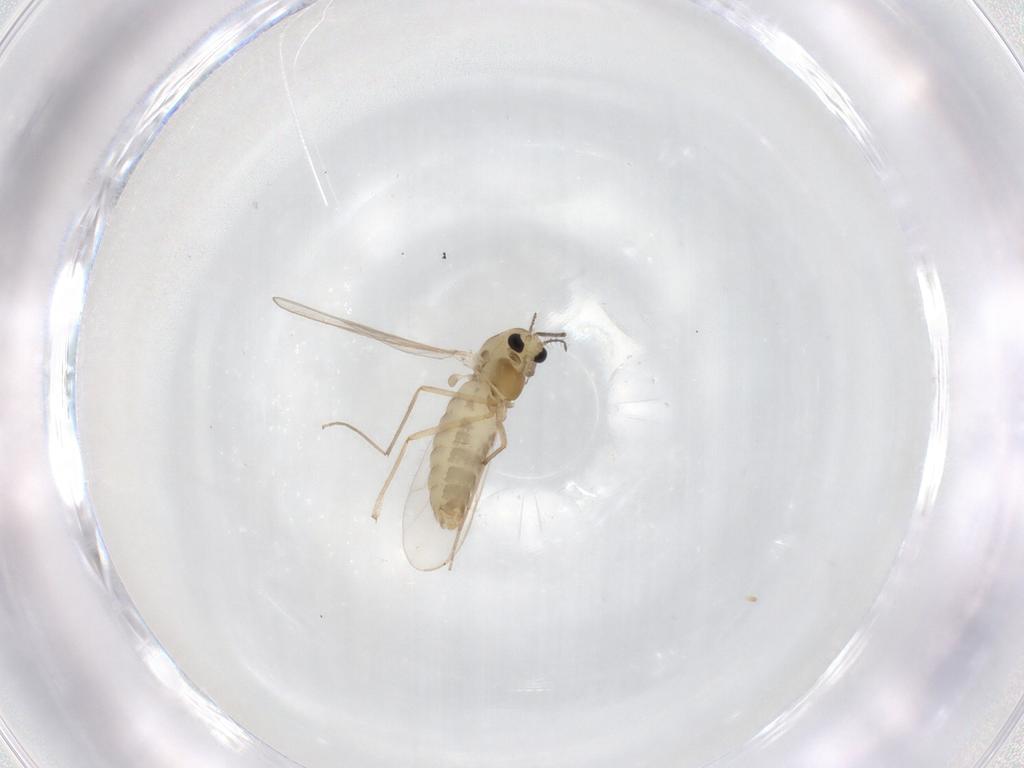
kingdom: Animalia
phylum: Arthropoda
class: Insecta
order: Diptera
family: Chironomidae
